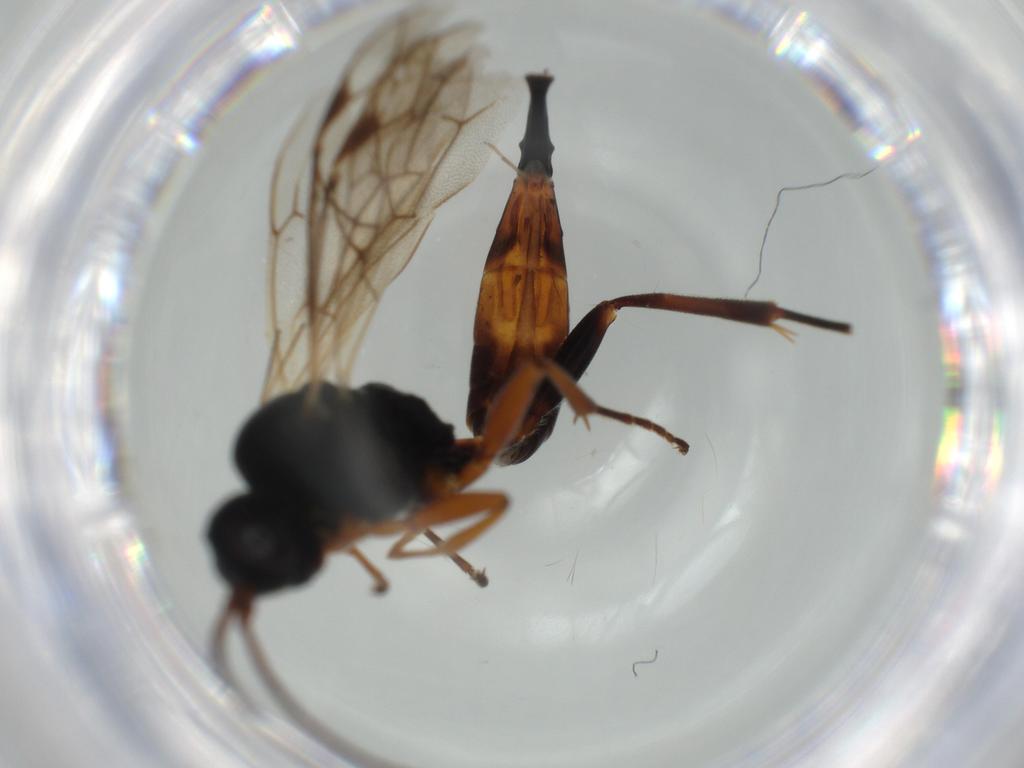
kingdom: Animalia
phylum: Arthropoda
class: Insecta
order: Hymenoptera
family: Ichneumonidae
